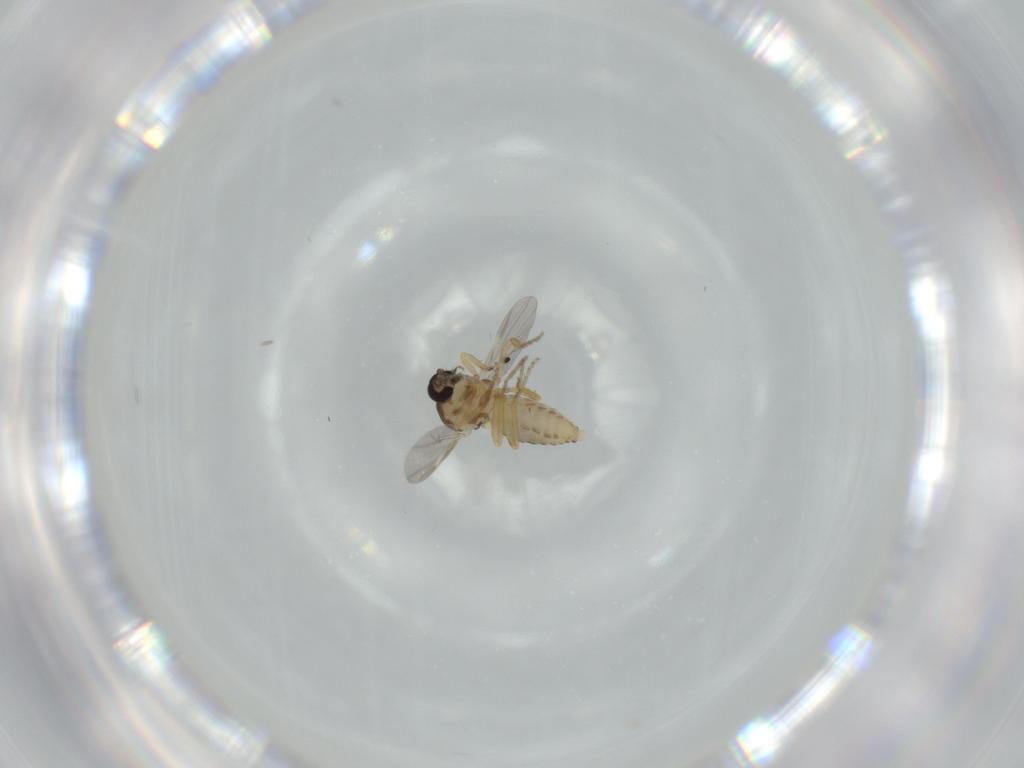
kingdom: Animalia
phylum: Arthropoda
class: Insecta
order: Diptera
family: Ceratopogonidae
